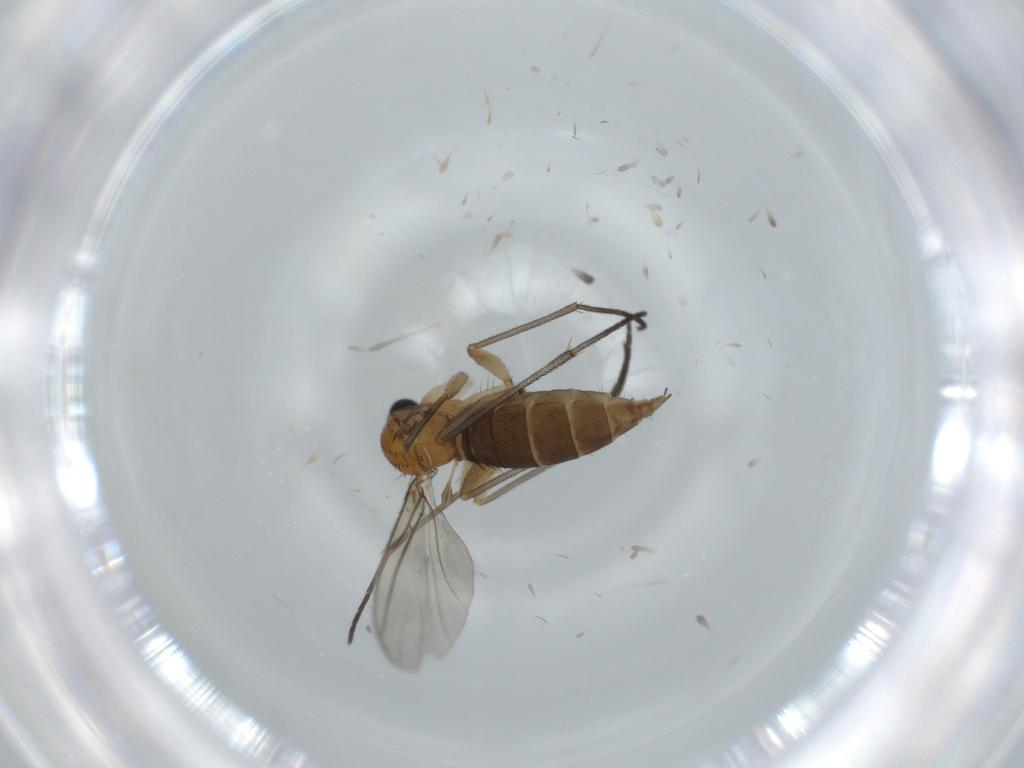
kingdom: Animalia
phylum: Arthropoda
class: Insecta
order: Diptera
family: Sciaridae
